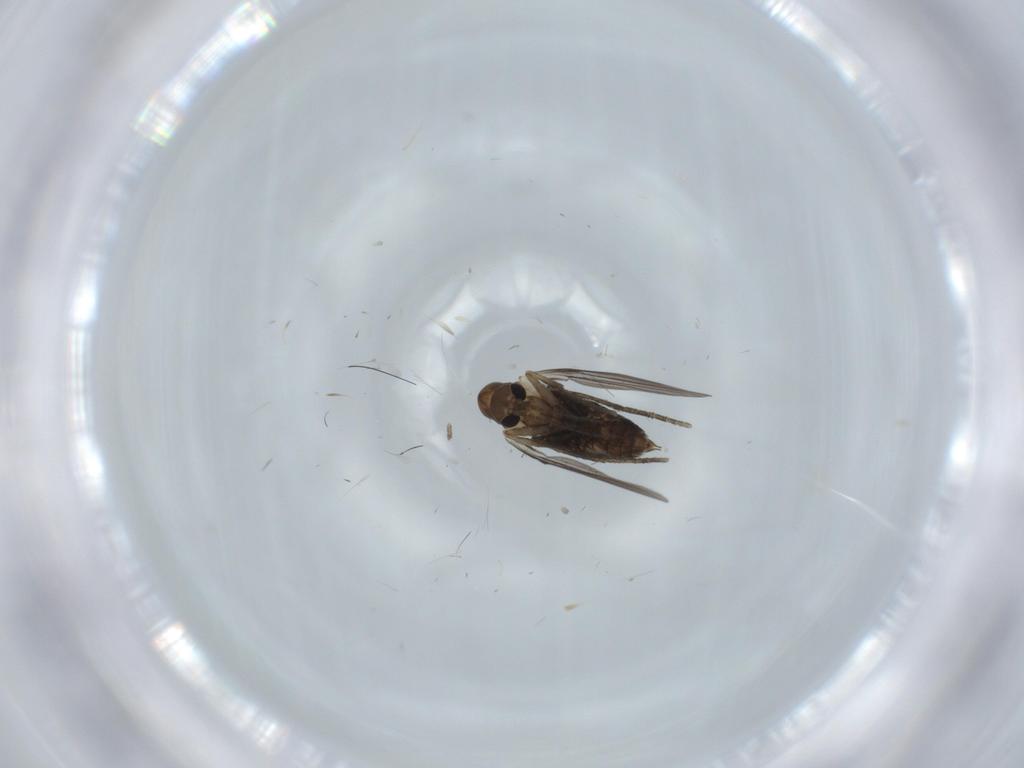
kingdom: Animalia
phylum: Arthropoda
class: Insecta
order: Diptera
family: Psychodidae
